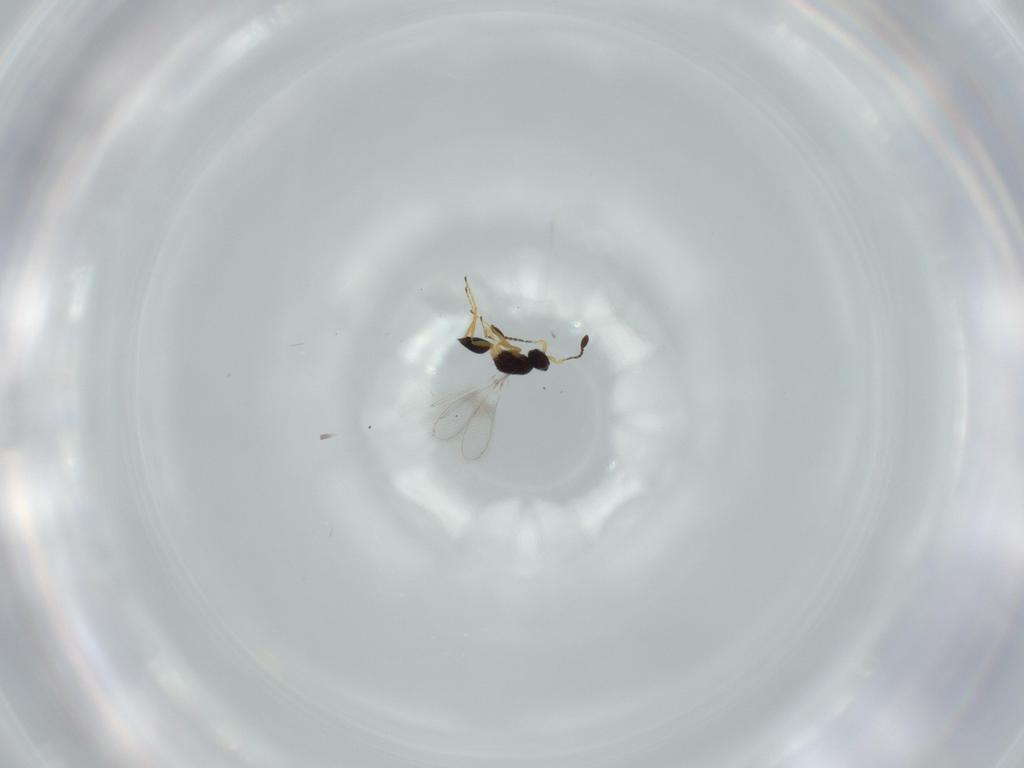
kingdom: Animalia
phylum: Arthropoda
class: Insecta
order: Hymenoptera
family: Mymaridae
